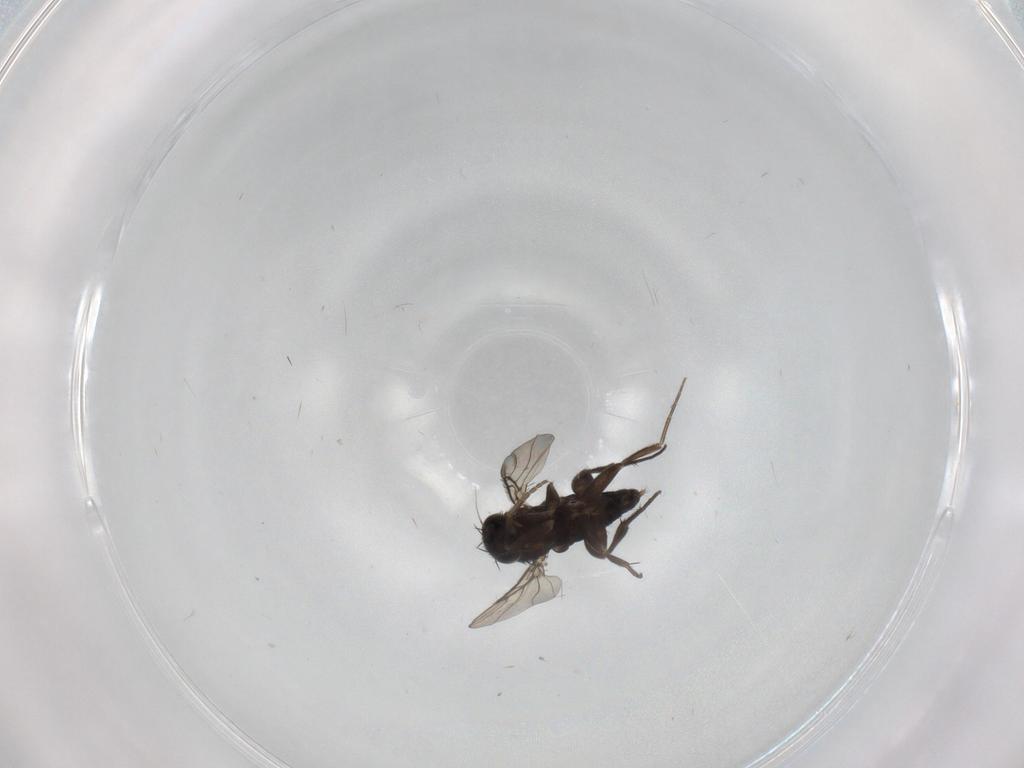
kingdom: Animalia
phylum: Arthropoda
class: Insecta
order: Diptera
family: Phoridae
